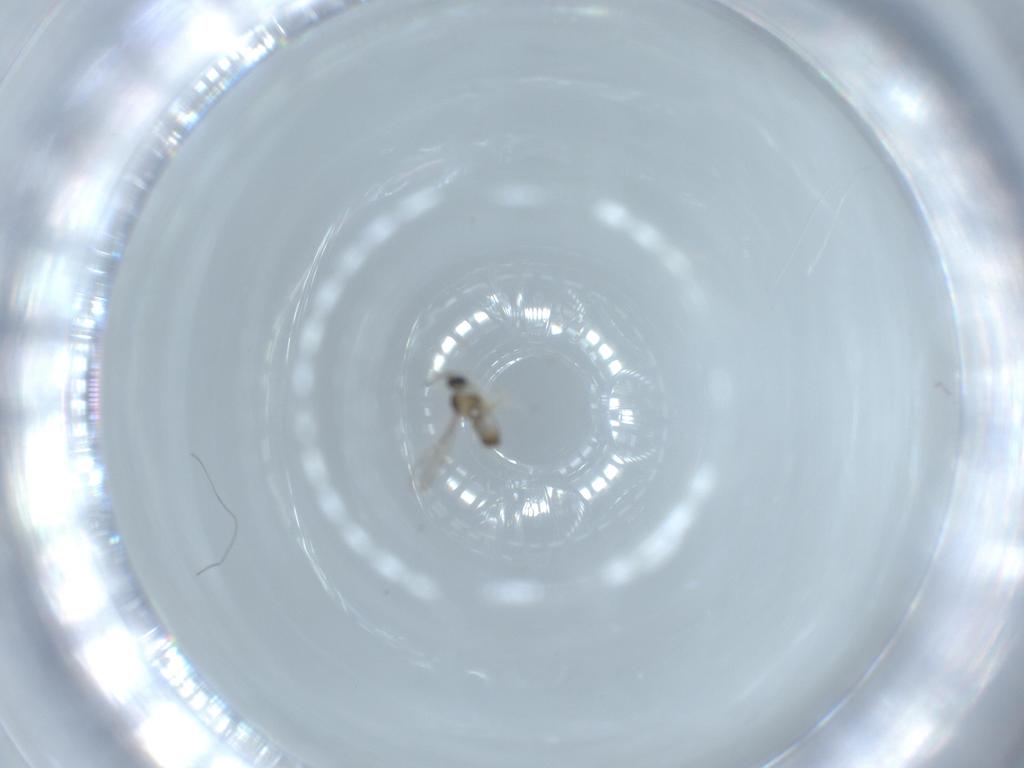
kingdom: Animalia
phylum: Arthropoda
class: Insecta
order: Diptera
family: Cecidomyiidae
